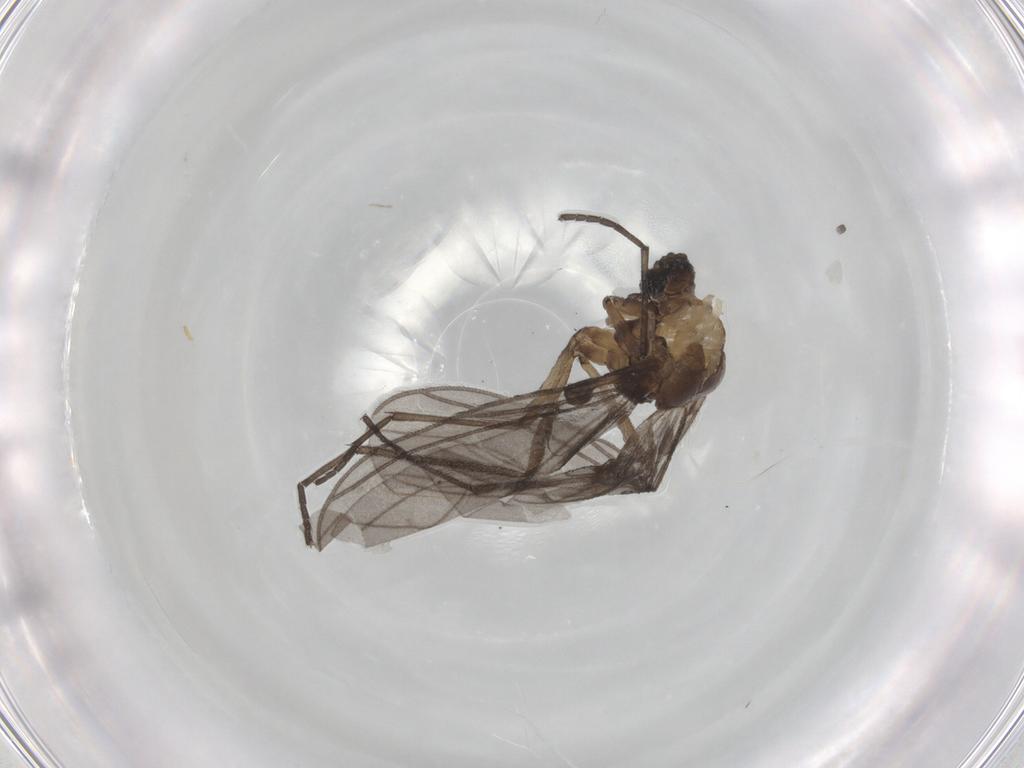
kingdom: Animalia
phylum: Arthropoda
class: Insecta
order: Diptera
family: Sciaridae
